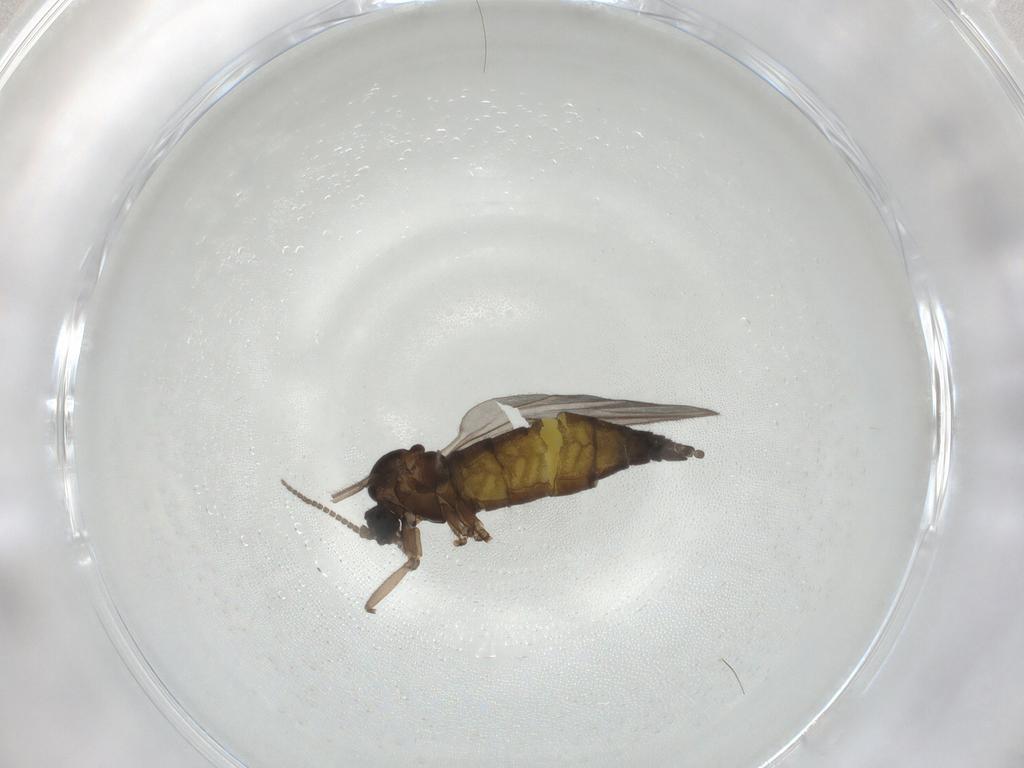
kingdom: Animalia
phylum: Arthropoda
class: Insecta
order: Diptera
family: Sciaridae
